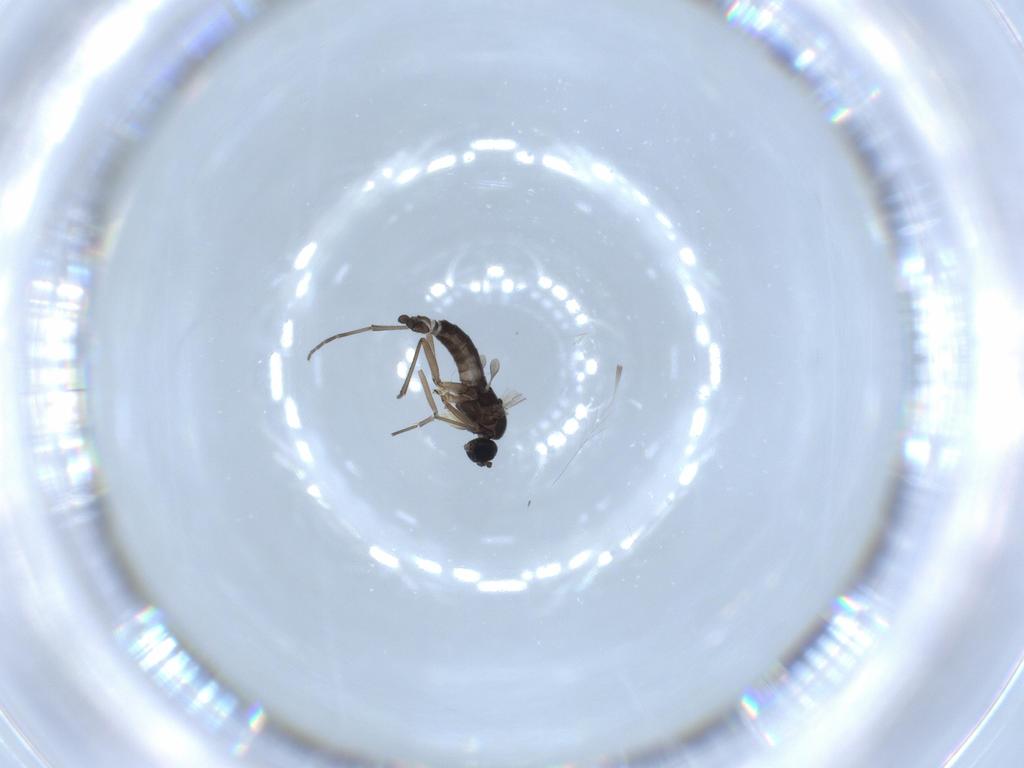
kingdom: Animalia
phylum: Arthropoda
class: Insecta
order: Diptera
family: Sciaridae
